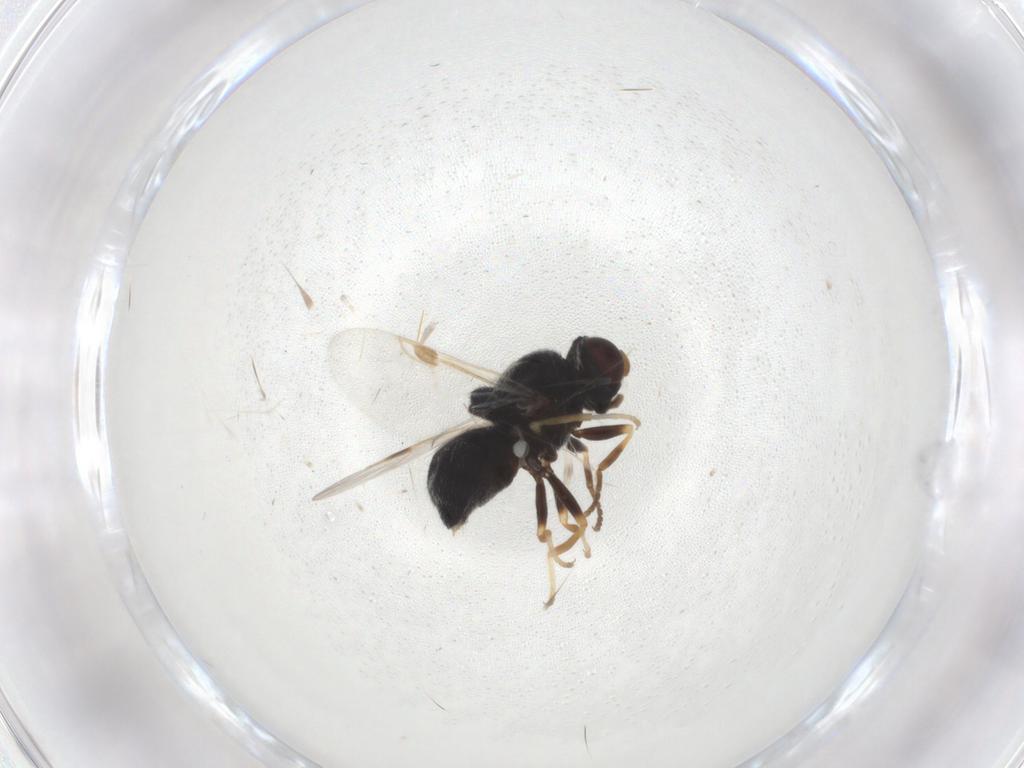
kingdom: Animalia
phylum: Arthropoda
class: Insecta
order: Diptera
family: Stratiomyidae
